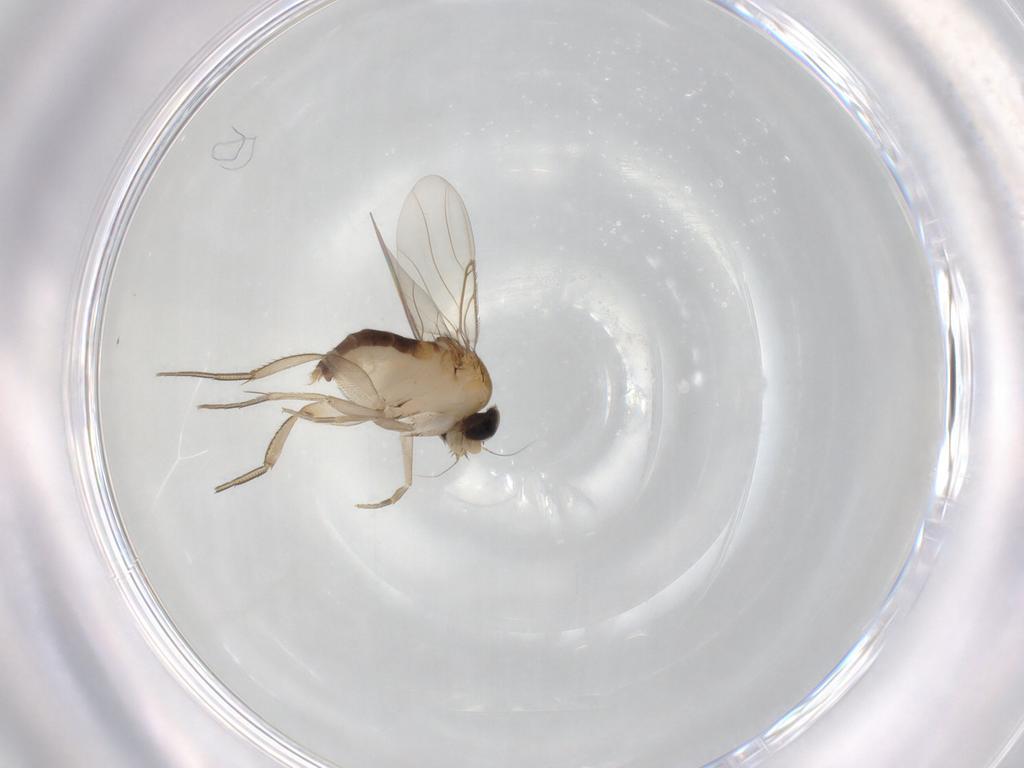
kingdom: Animalia
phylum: Arthropoda
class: Insecta
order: Diptera
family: Phoridae
